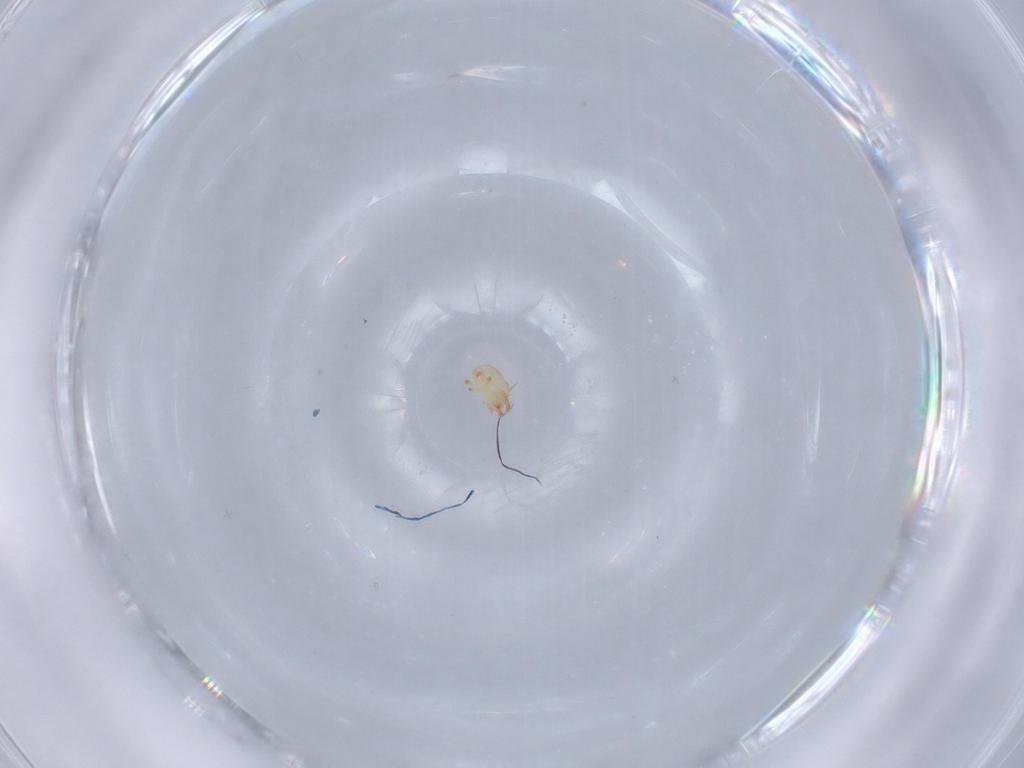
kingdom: Animalia
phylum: Arthropoda
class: Arachnida
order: Trombidiformes
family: Stigmaeidae
